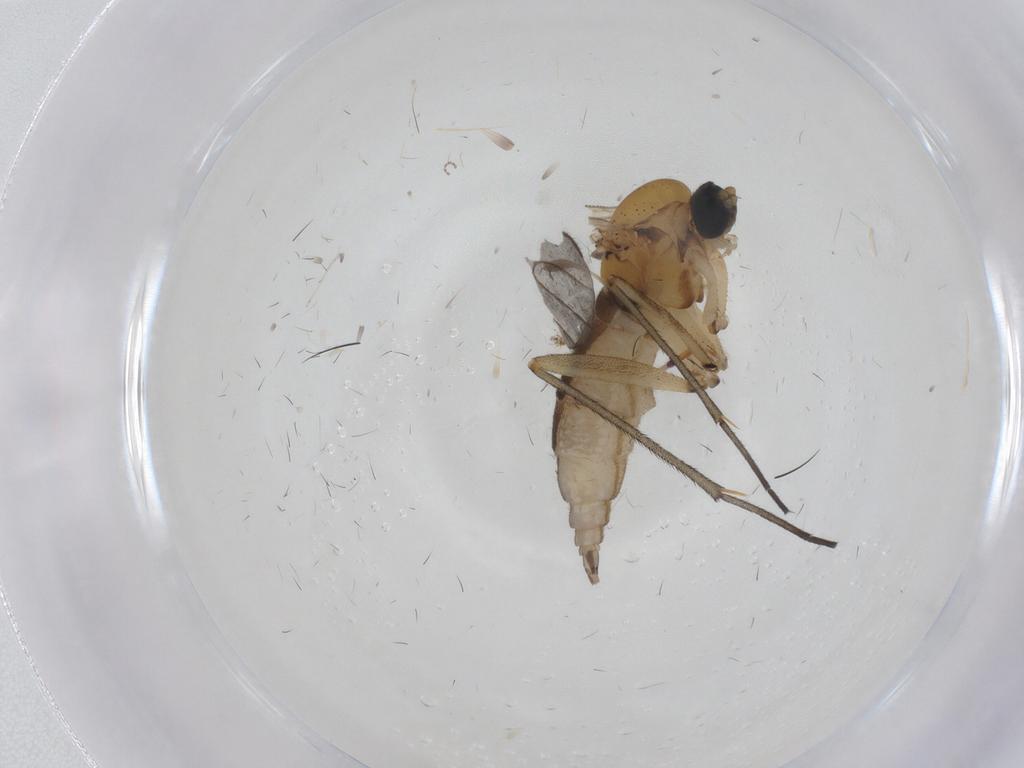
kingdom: Animalia
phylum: Arthropoda
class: Insecta
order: Diptera
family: Sciaridae
